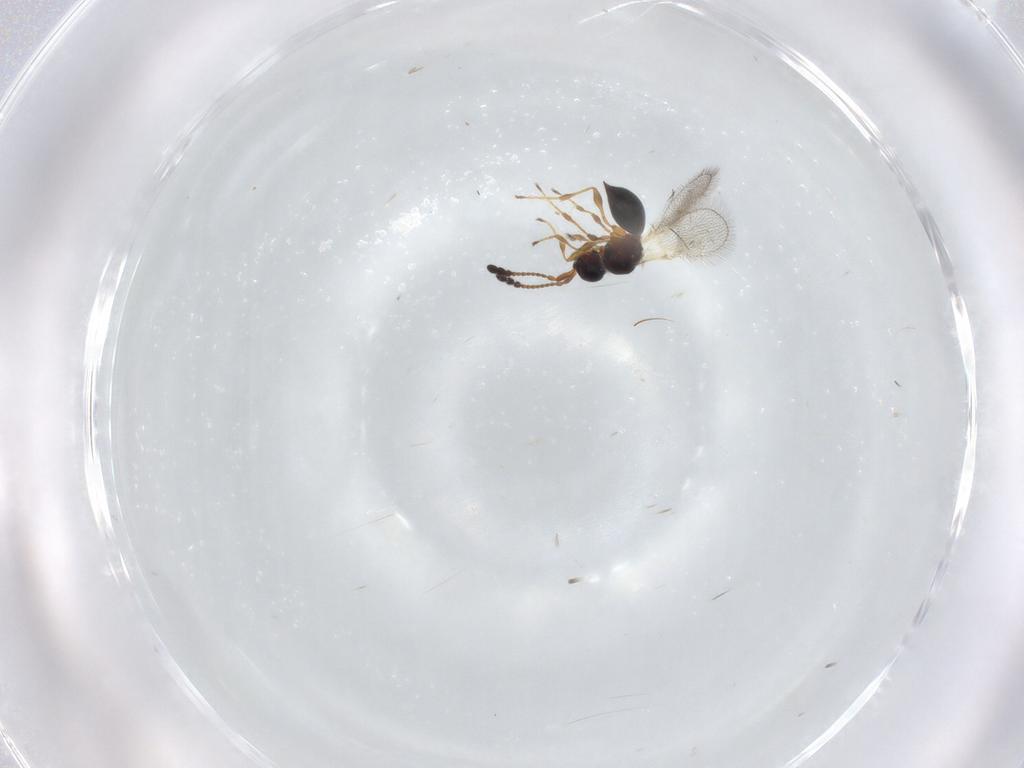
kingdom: Animalia
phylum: Arthropoda
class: Insecta
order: Hymenoptera
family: Diapriidae
